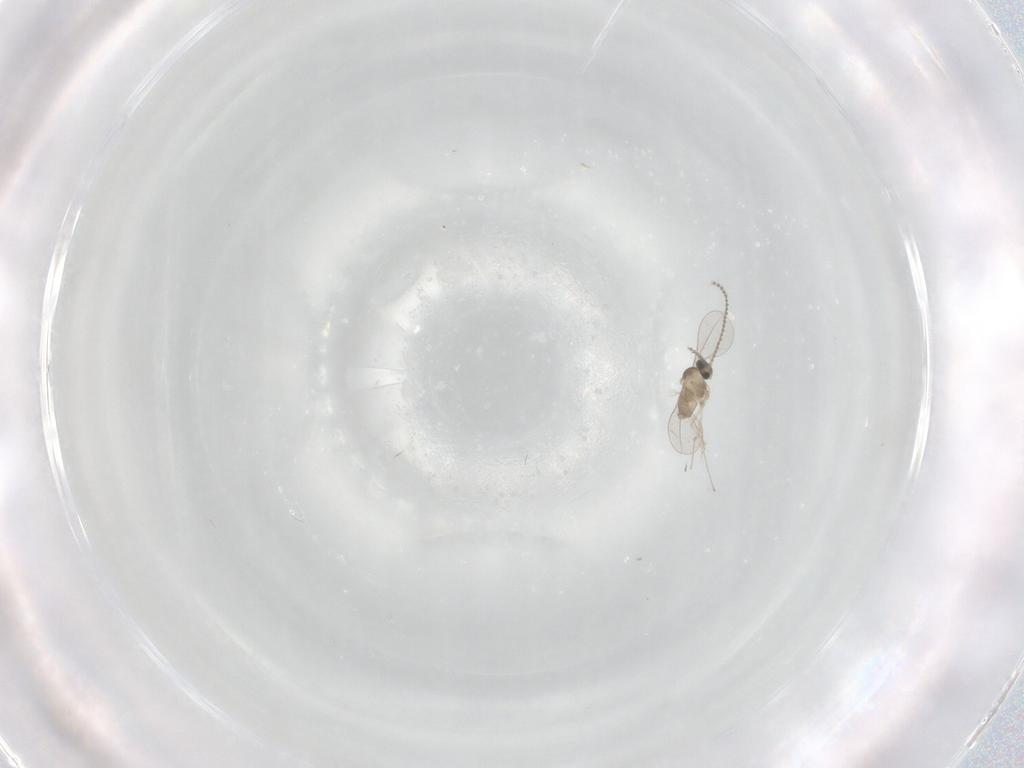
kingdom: Animalia
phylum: Arthropoda
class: Insecta
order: Diptera
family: Cecidomyiidae
